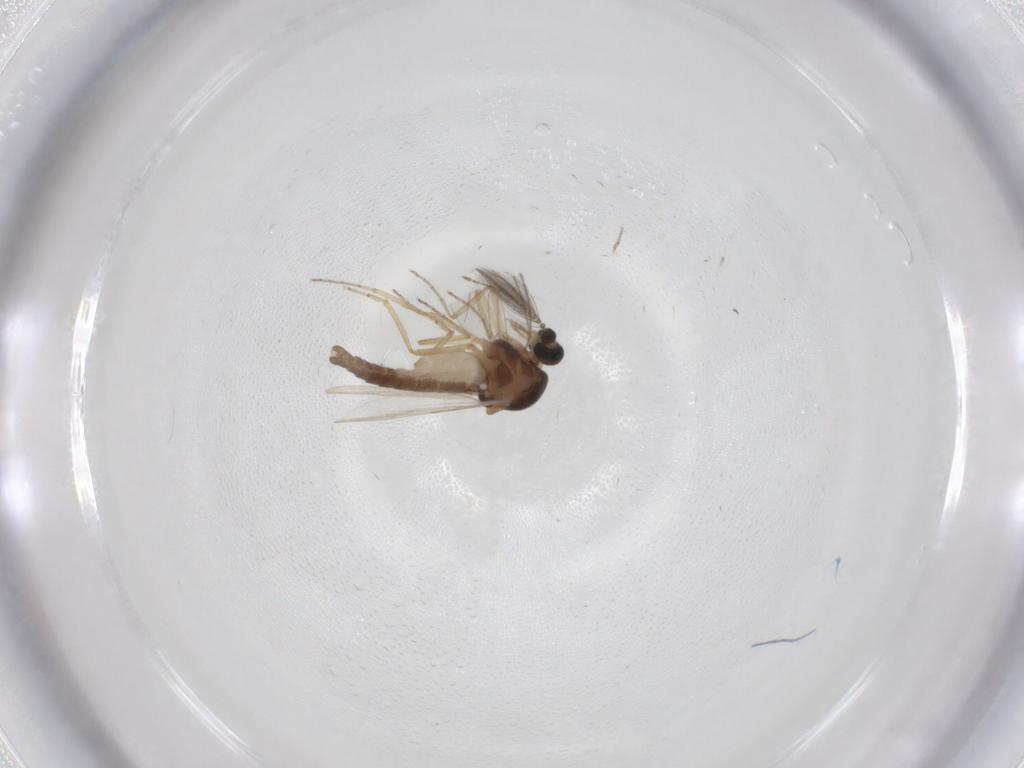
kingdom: Animalia
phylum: Arthropoda
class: Insecta
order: Diptera
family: Ceratopogonidae
